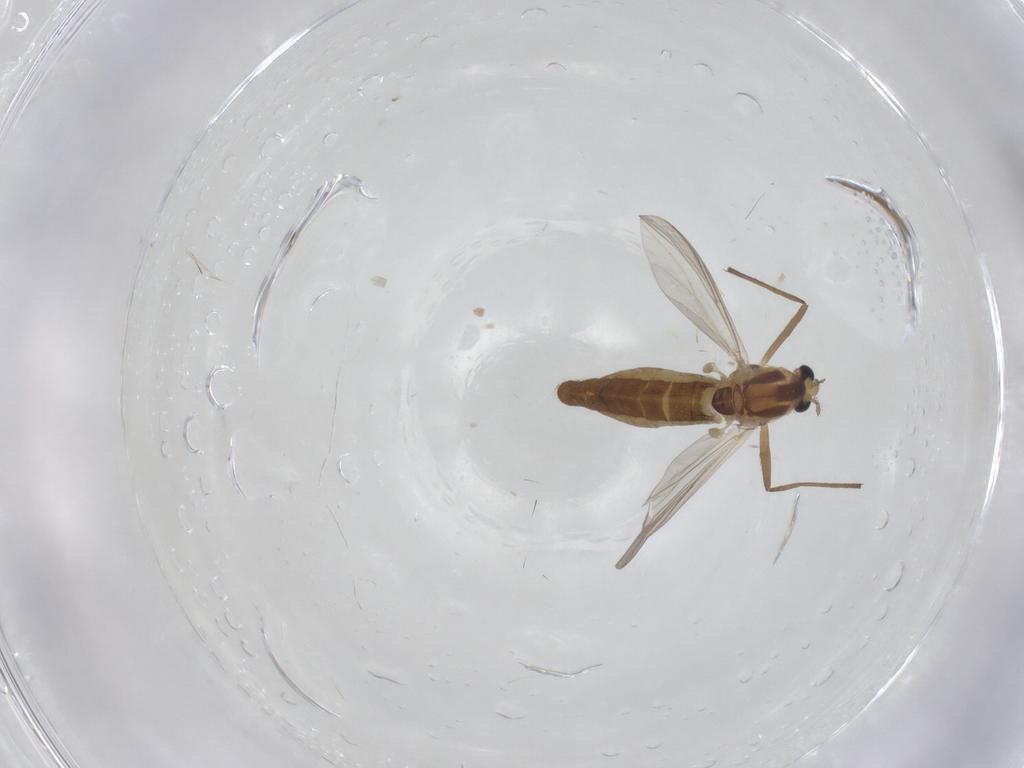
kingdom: Animalia
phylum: Arthropoda
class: Insecta
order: Diptera
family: Chironomidae
